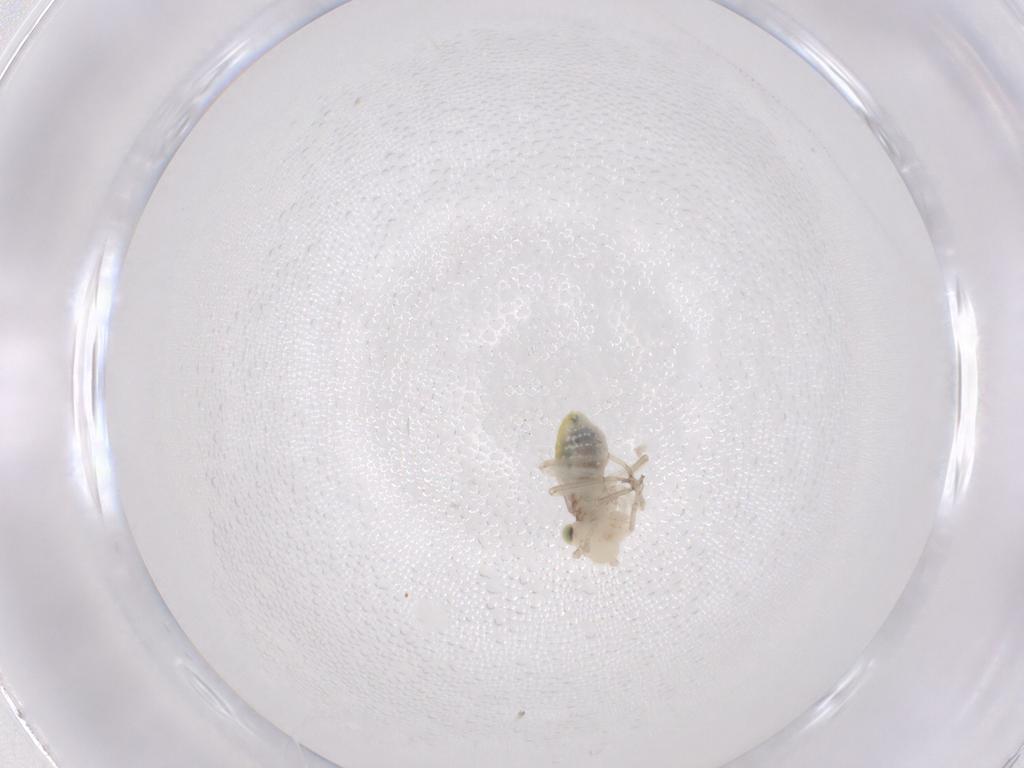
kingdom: Animalia
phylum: Arthropoda
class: Insecta
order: Psocodea
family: Caeciliusidae
